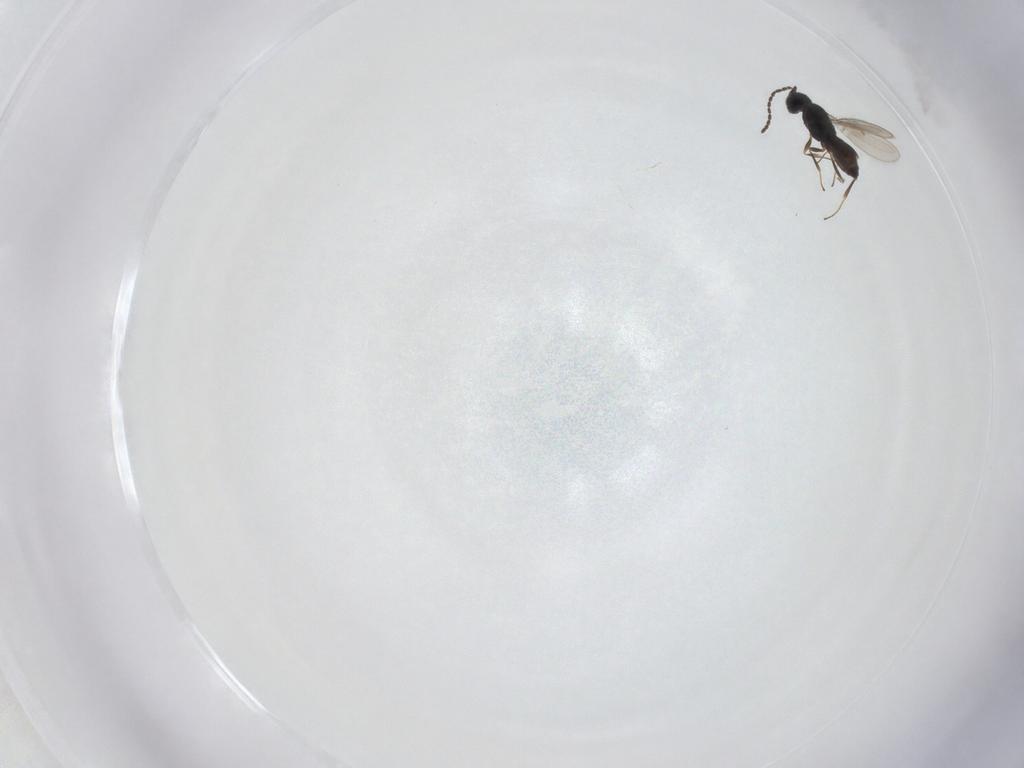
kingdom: Animalia
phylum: Arthropoda
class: Insecta
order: Hymenoptera
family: Scelionidae
